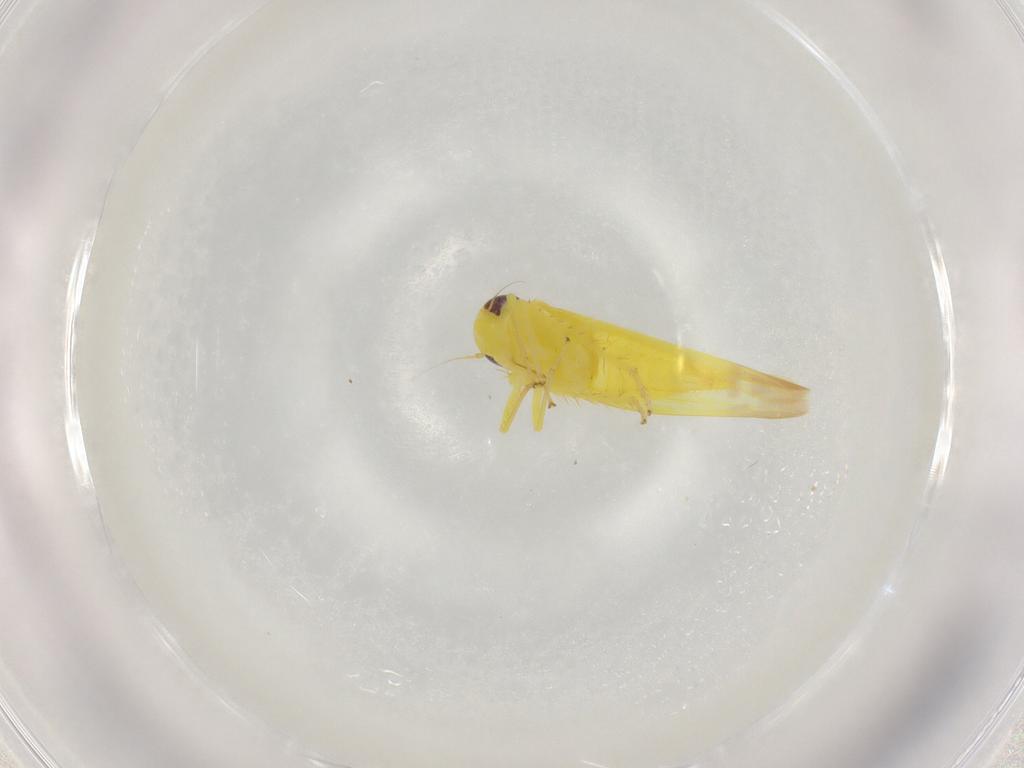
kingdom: Animalia
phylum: Arthropoda
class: Insecta
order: Hemiptera
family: Cicadellidae
